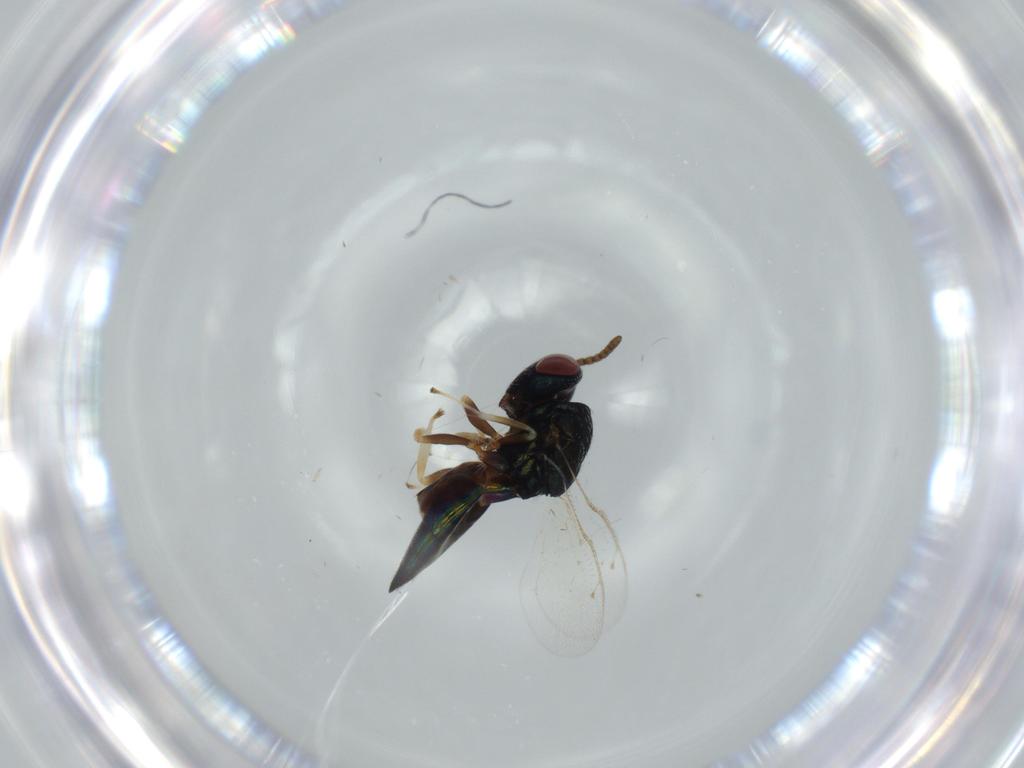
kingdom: Animalia
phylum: Arthropoda
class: Insecta
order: Hymenoptera
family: Pteromalidae
